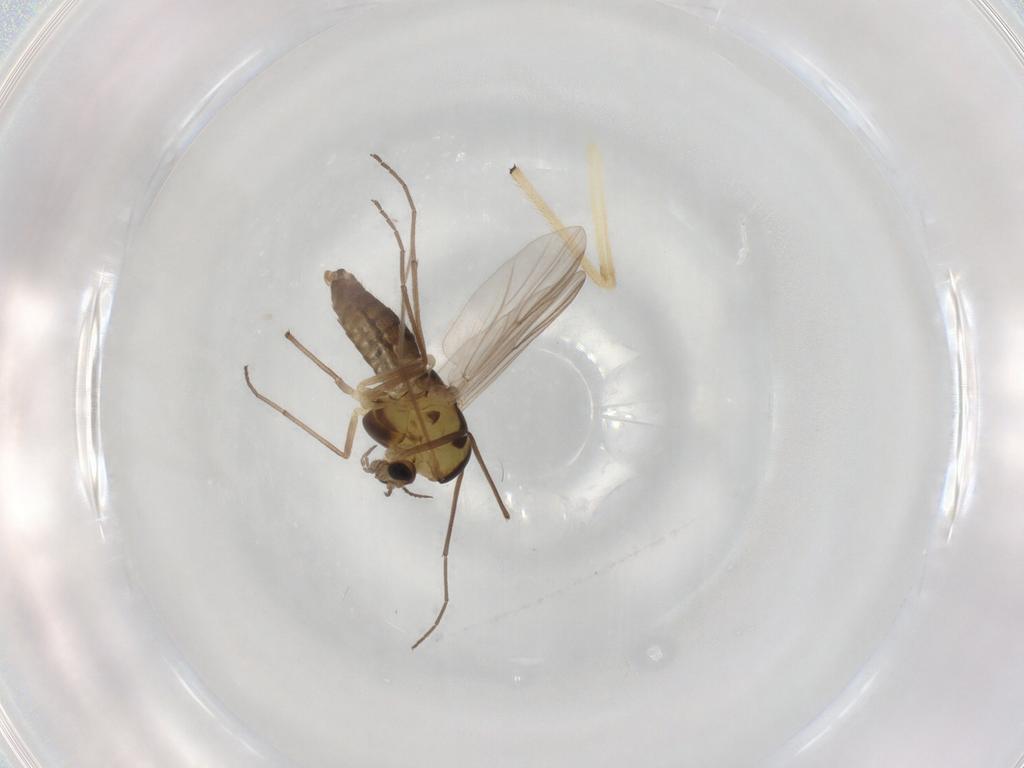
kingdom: Animalia
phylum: Arthropoda
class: Insecta
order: Diptera
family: Chironomidae
